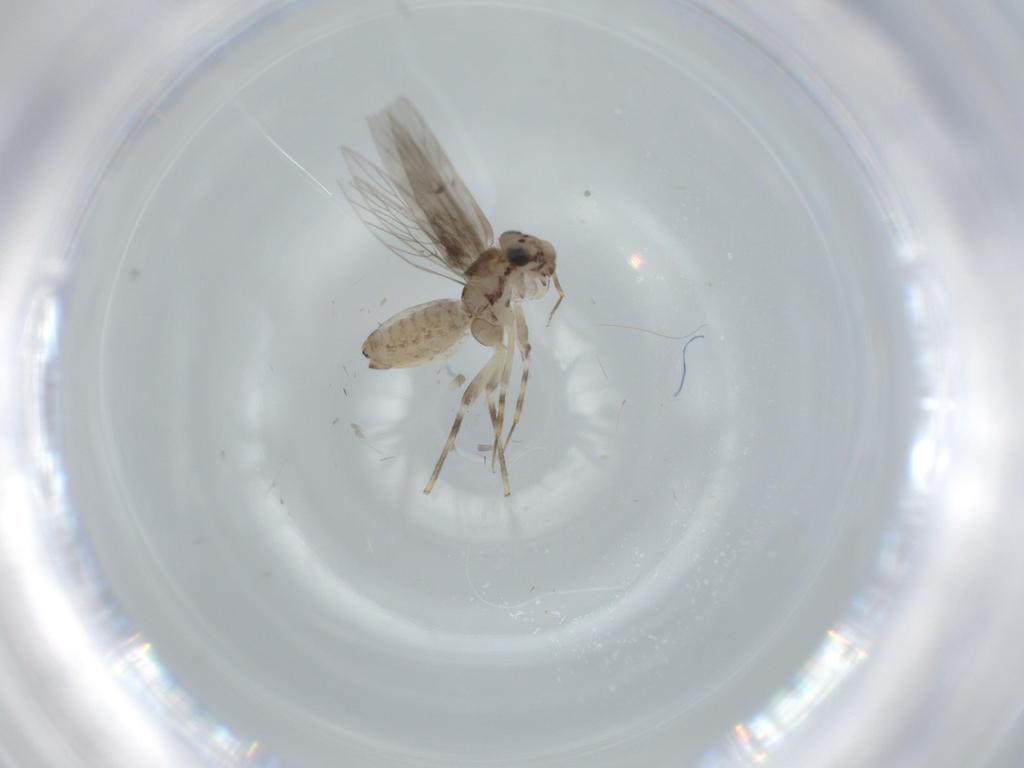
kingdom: Animalia
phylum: Arthropoda
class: Insecta
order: Psocodea
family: Lepidopsocidae
